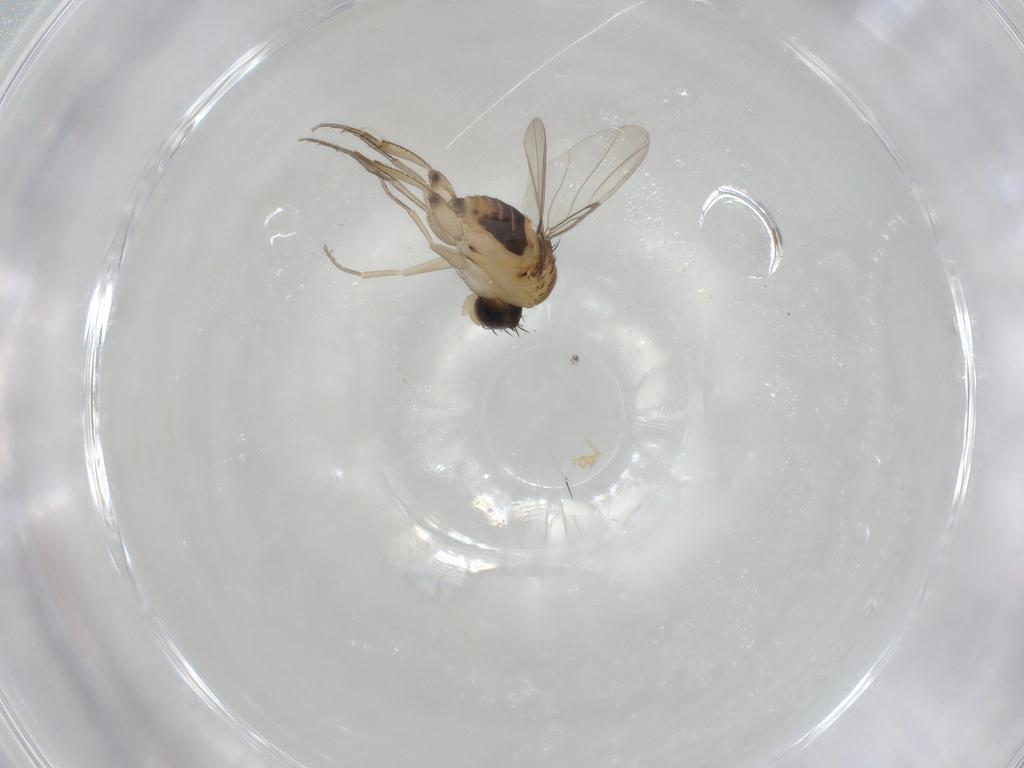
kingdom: Animalia
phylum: Arthropoda
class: Insecta
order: Diptera
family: Phoridae
